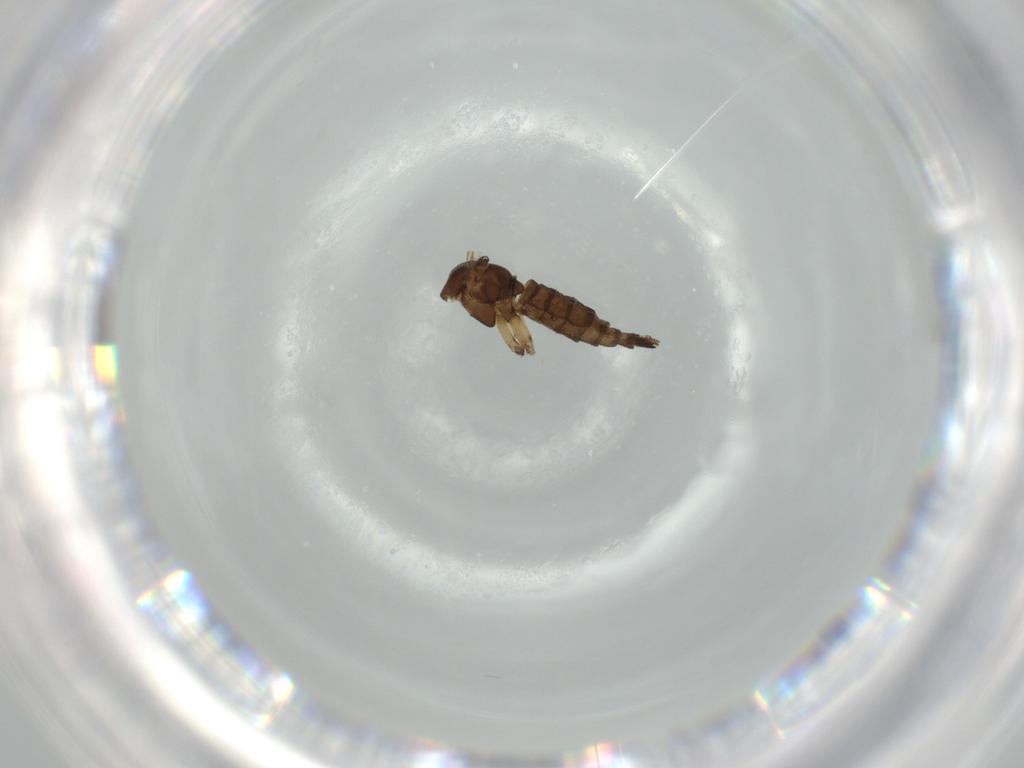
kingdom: Animalia
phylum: Arthropoda
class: Insecta
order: Diptera
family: Sciaridae
